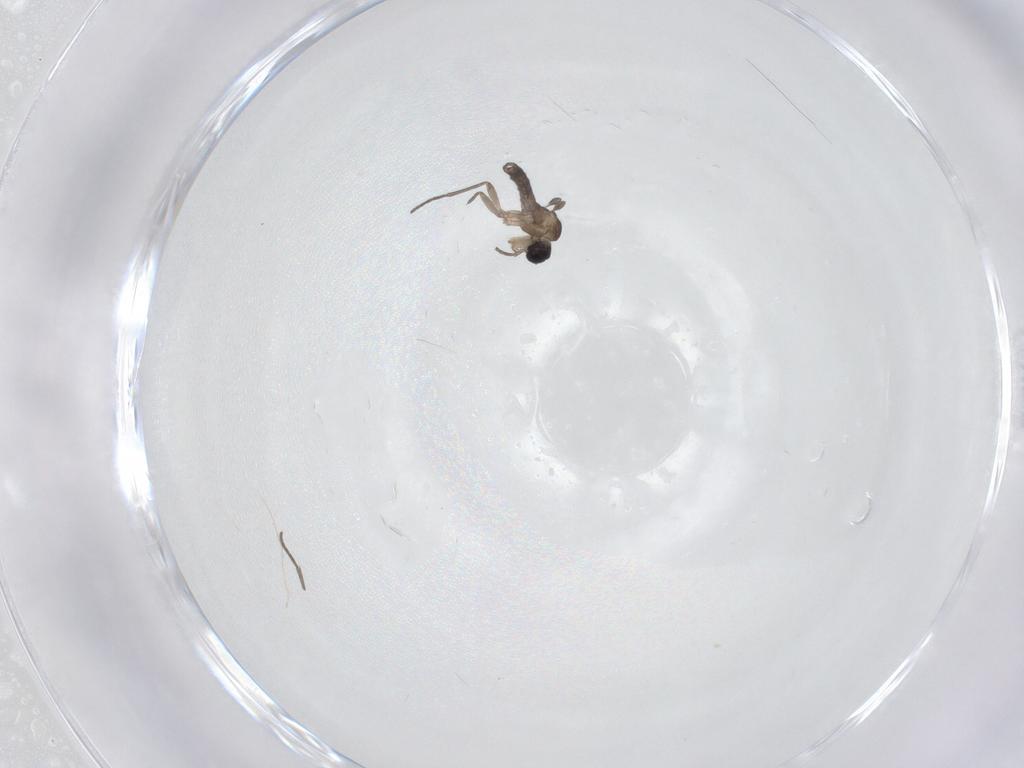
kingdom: Animalia
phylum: Arthropoda
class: Insecta
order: Diptera
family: Sciaridae
